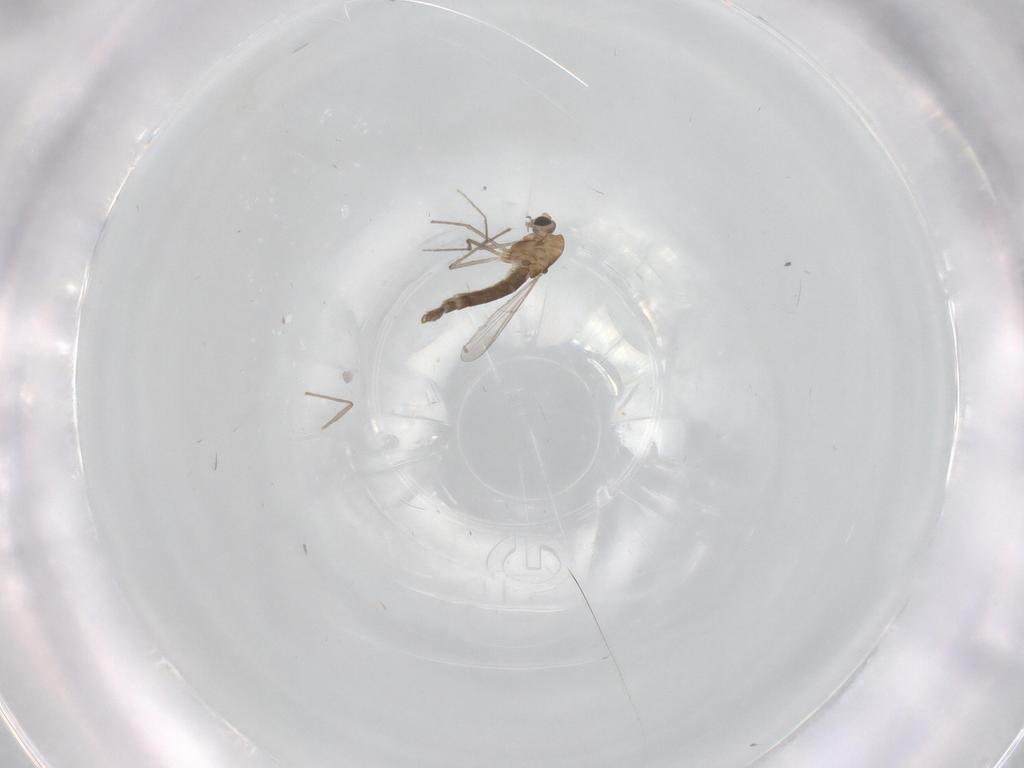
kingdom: Animalia
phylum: Arthropoda
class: Insecta
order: Diptera
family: Chironomidae
